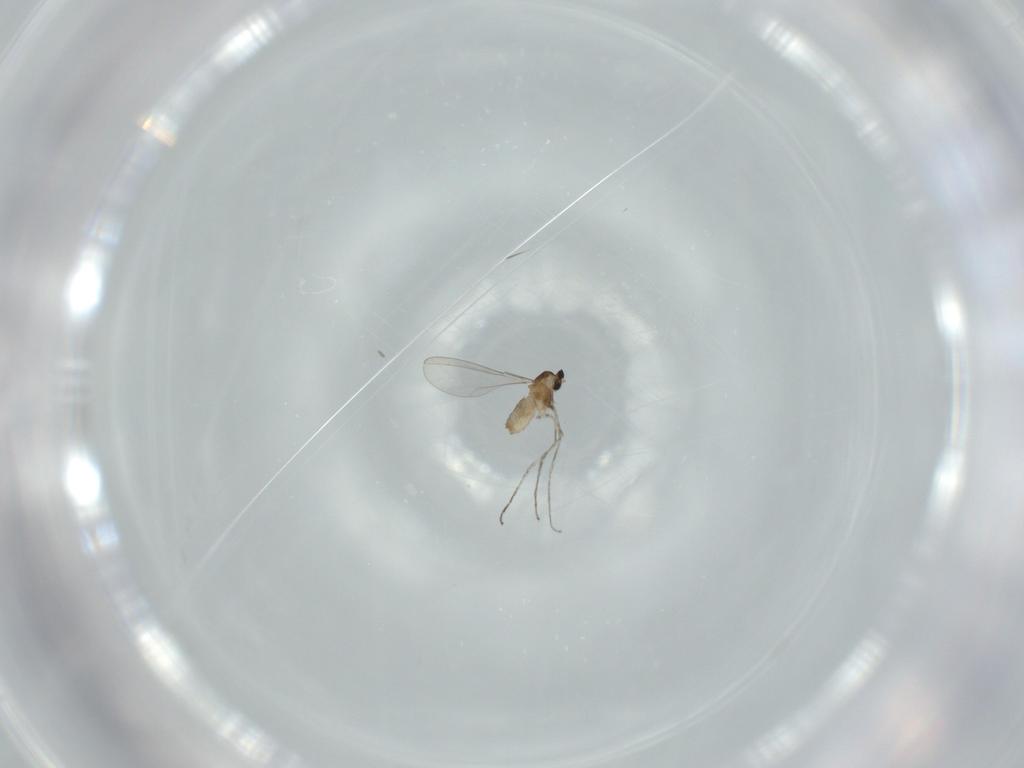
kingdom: Animalia
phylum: Arthropoda
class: Insecta
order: Diptera
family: Cecidomyiidae
